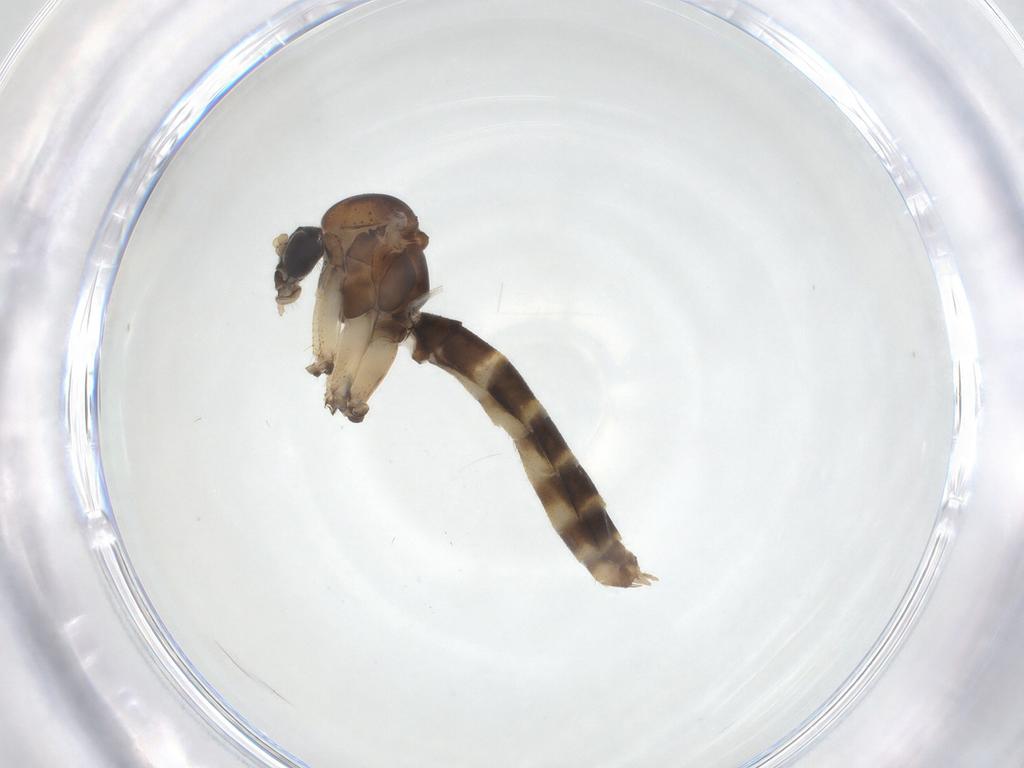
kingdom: Animalia
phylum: Arthropoda
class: Insecta
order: Diptera
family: Mycetophilidae
